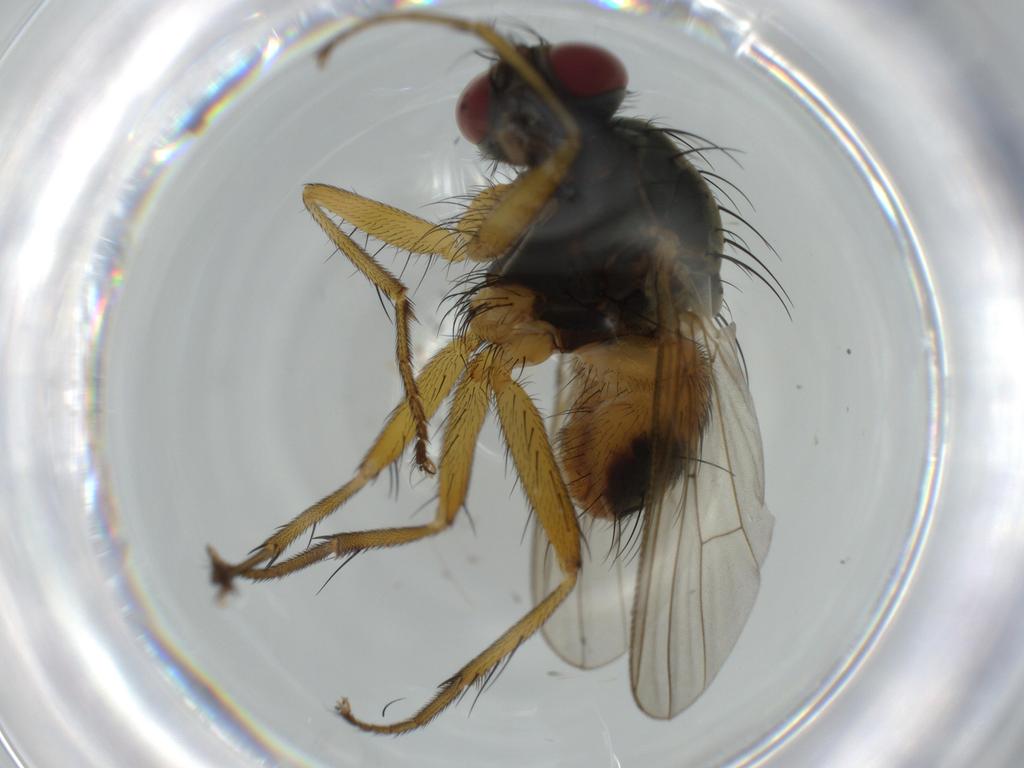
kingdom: Animalia
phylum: Arthropoda
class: Insecta
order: Diptera
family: Muscidae
